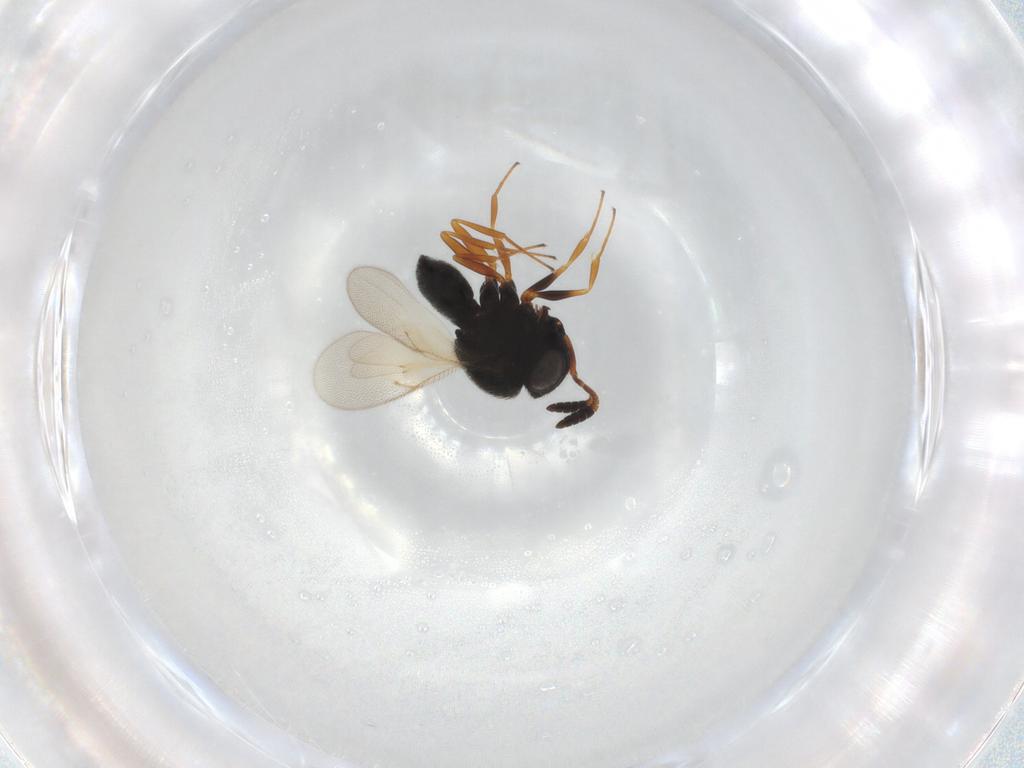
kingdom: Animalia
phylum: Arthropoda
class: Insecta
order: Hymenoptera
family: Scelionidae
